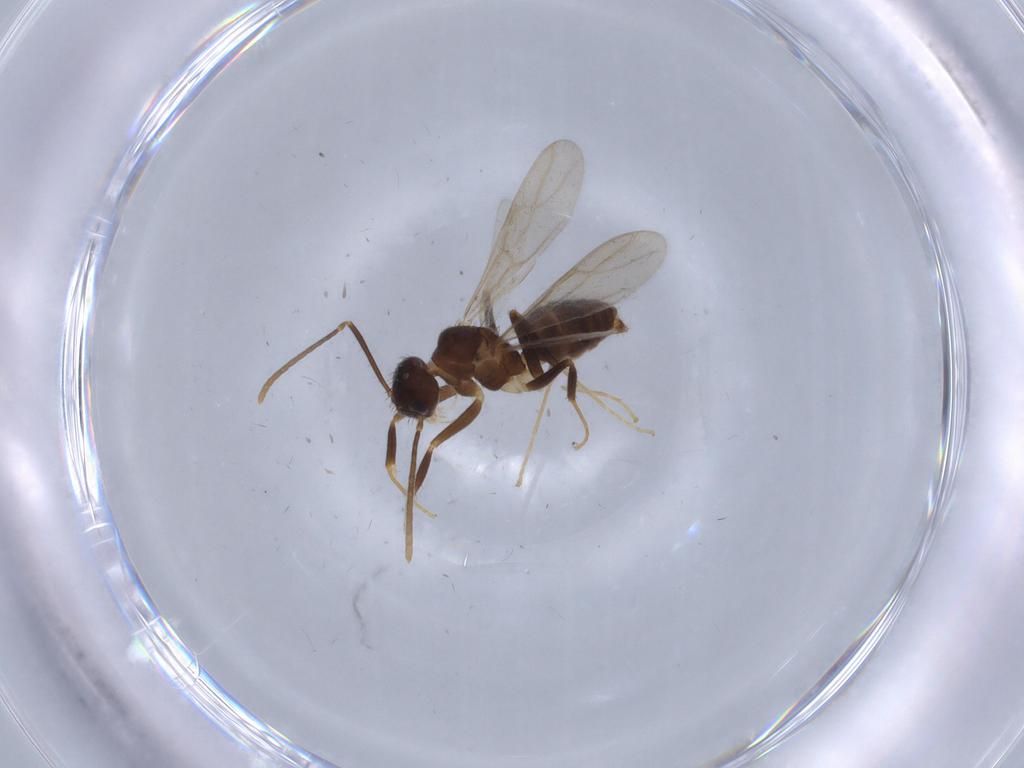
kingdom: Animalia
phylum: Arthropoda
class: Insecta
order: Hymenoptera
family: Formicidae
